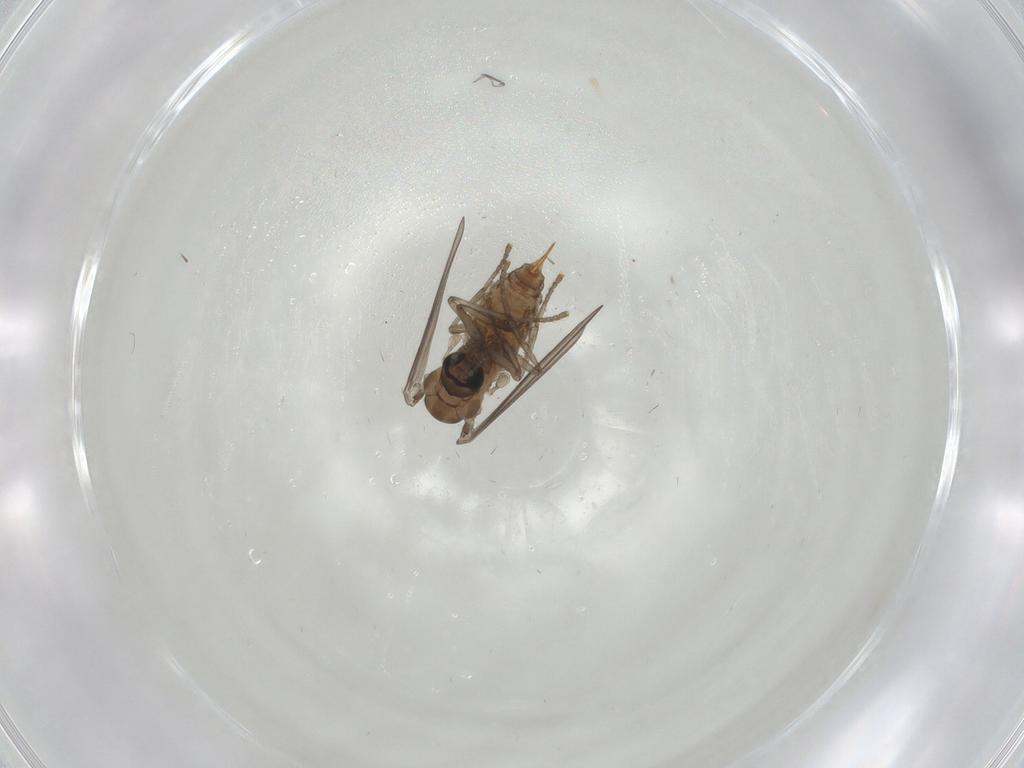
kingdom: Animalia
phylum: Arthropoda
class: Insecta
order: Diptera
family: Psychodidae
